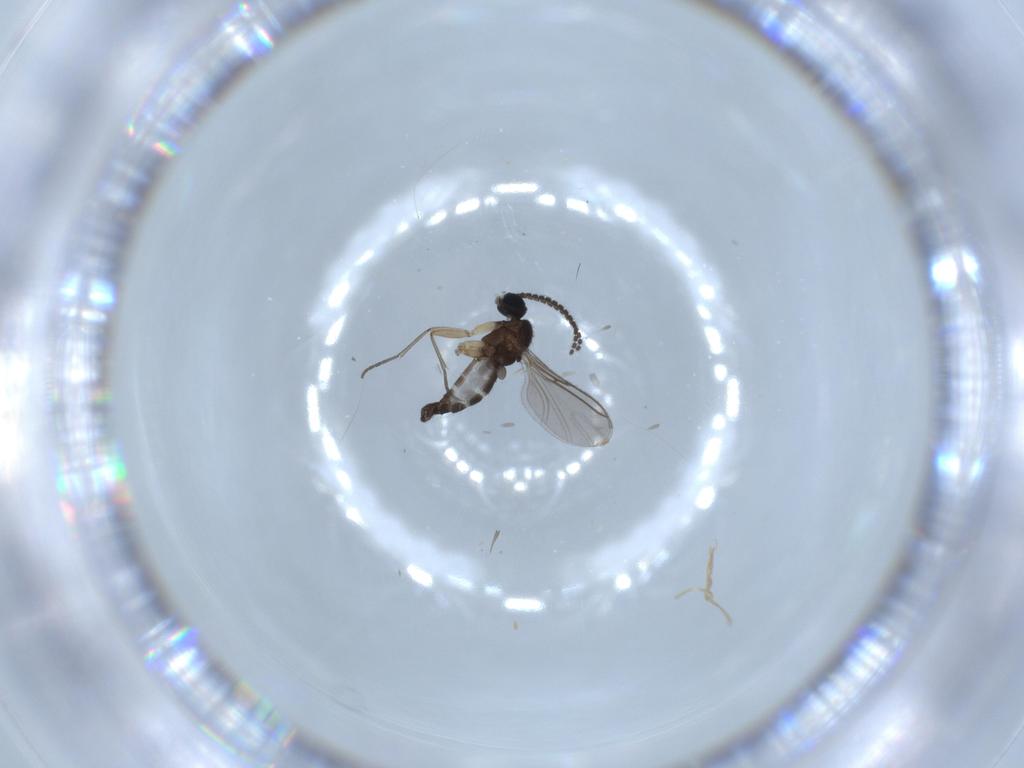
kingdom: Animalia
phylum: Arthropoda
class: Insecta
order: Diptera
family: Sciaridae
